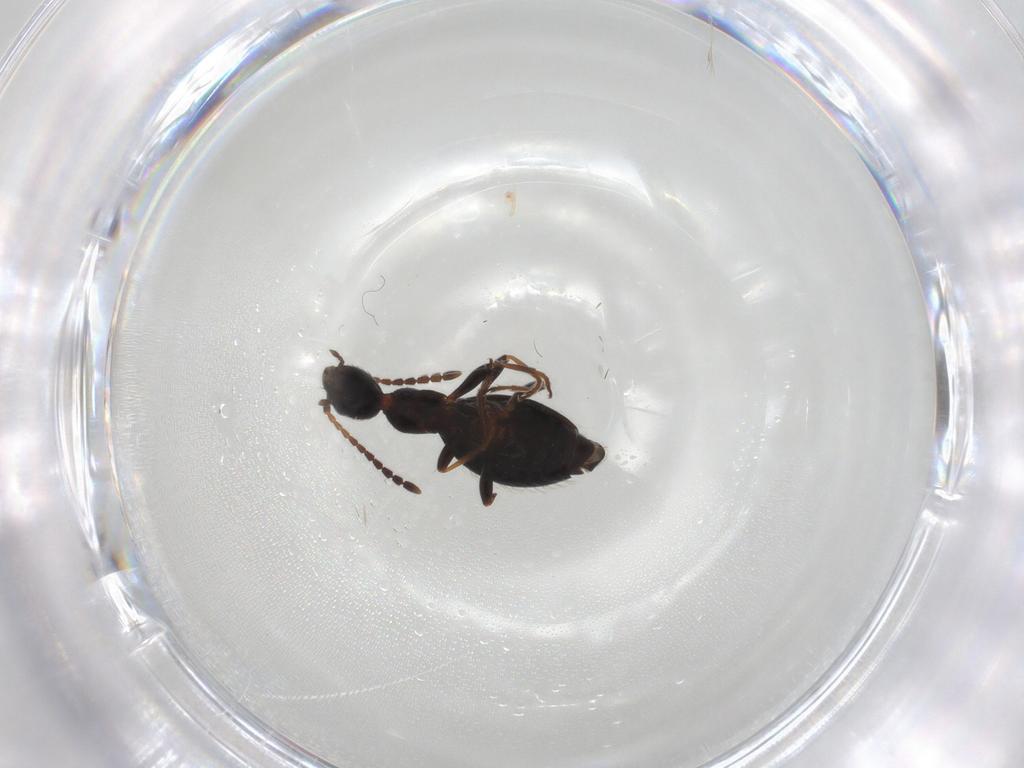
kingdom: Animalia
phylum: Arthropoda
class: Insecta
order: Coleoptera
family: Anthicidae
